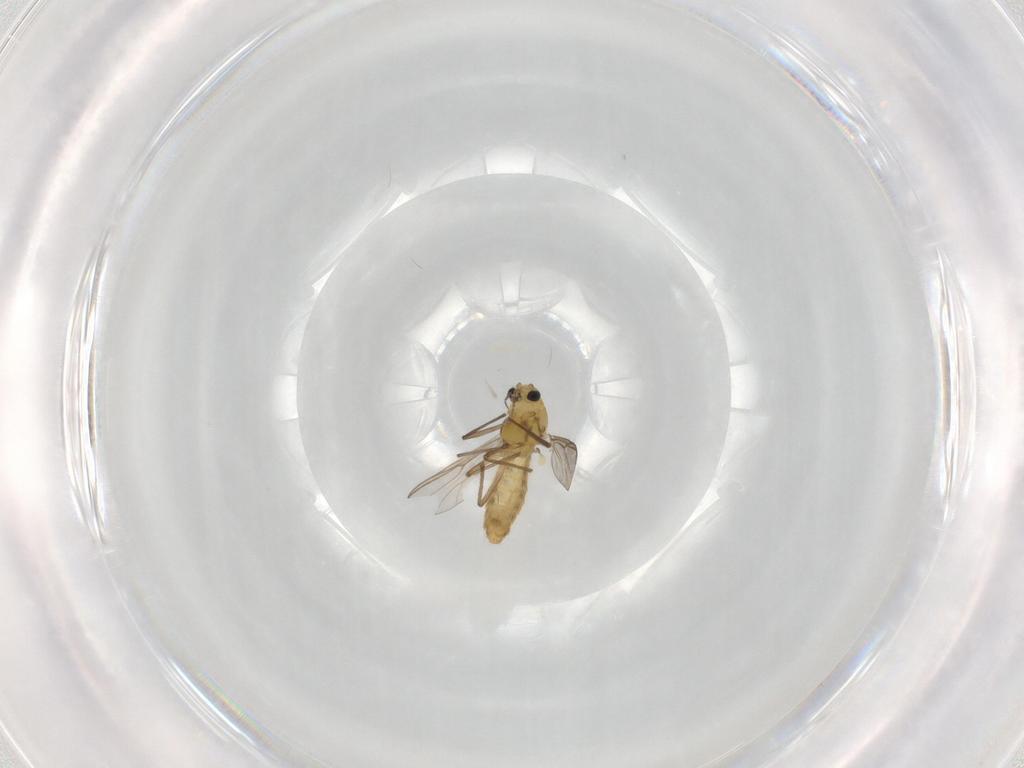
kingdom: Animalia
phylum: Arthropoda
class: Insecta
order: Diptera
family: Chironomidae
